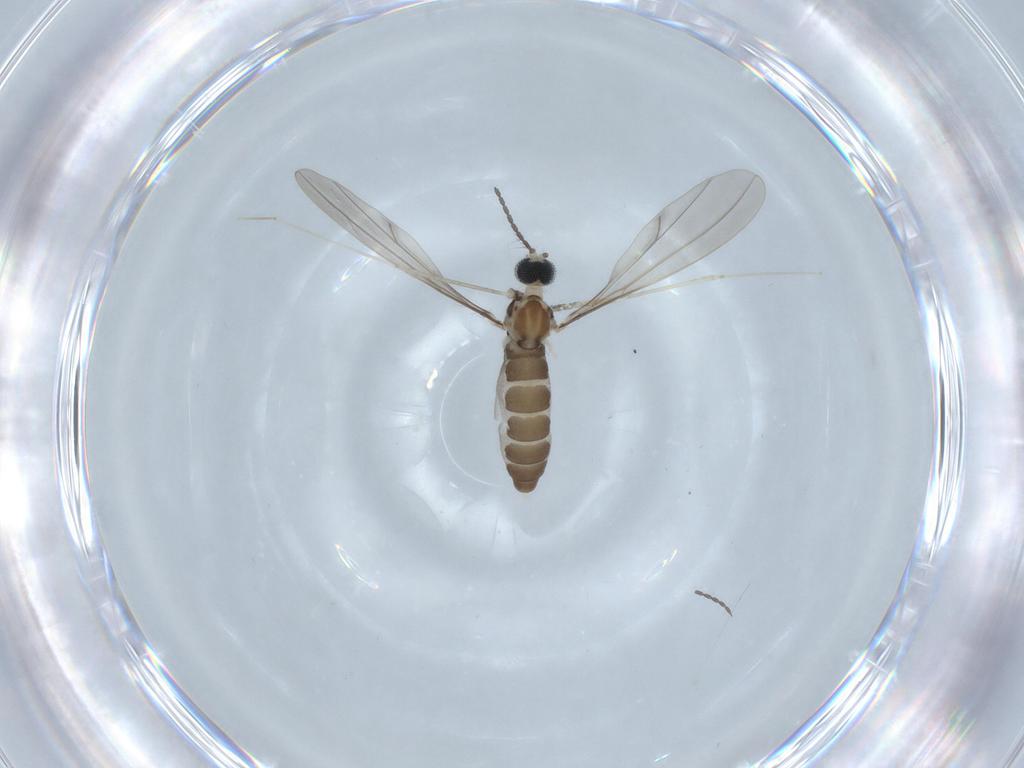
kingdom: Animalia
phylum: Arthropoda
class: Insecta
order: Diptera
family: Cecidomyiidae
